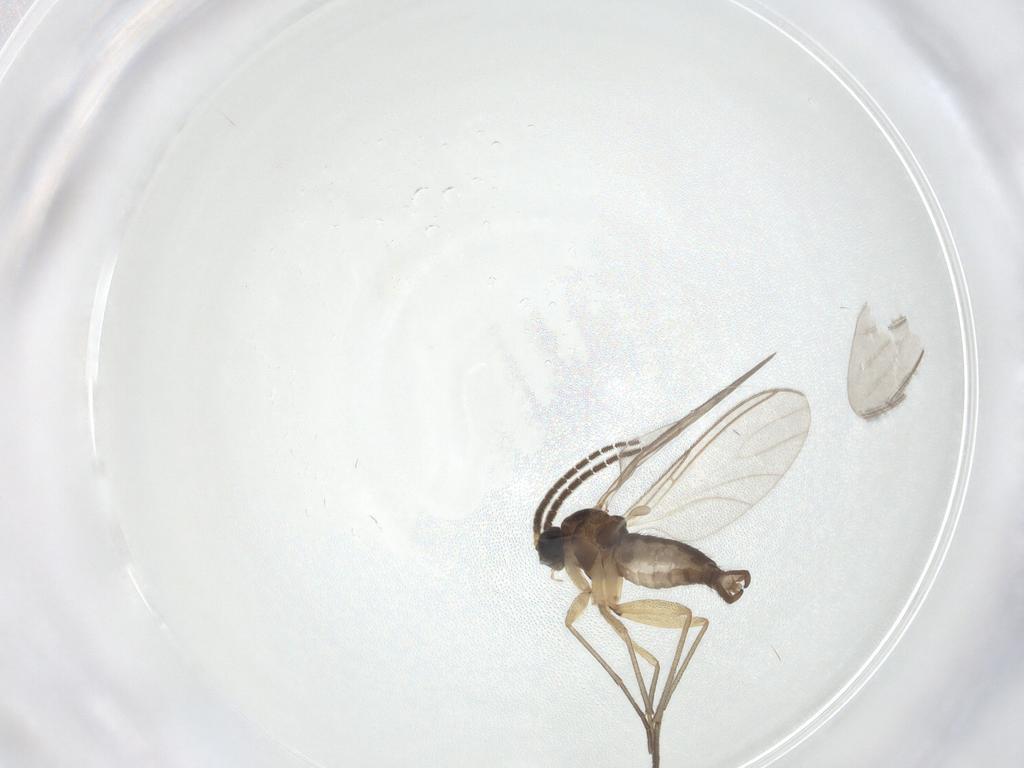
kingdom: Animalia
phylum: Arthropoda
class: Insecta
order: Diptera
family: Sciaridae
